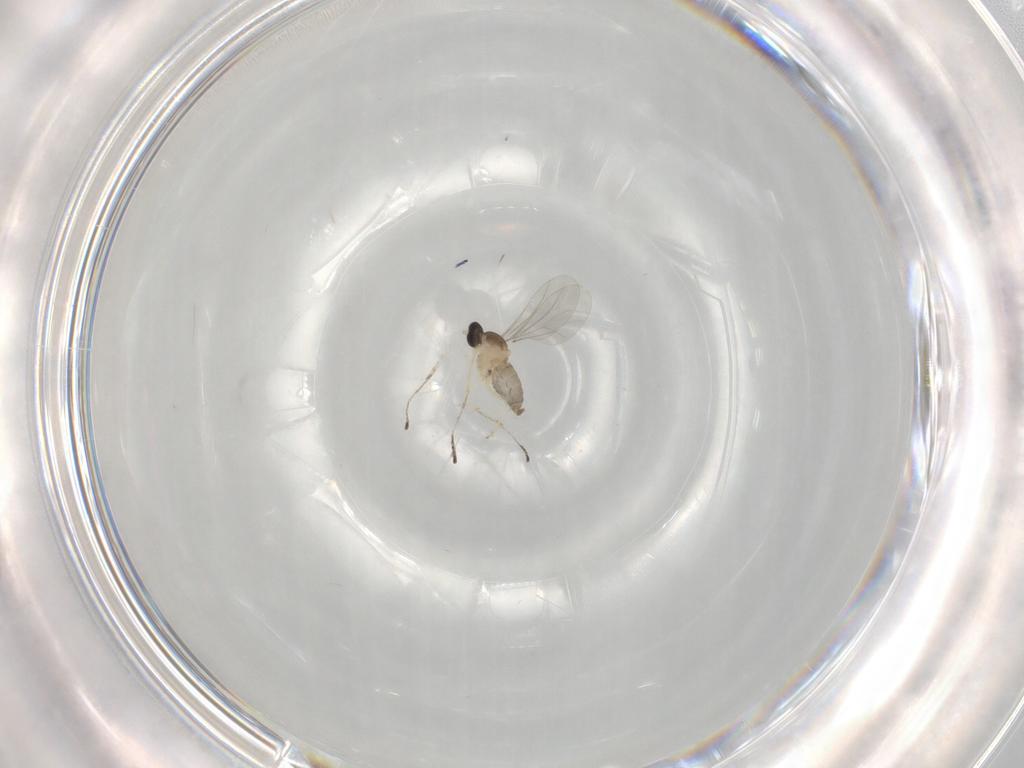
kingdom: Animalia
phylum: Arthropoda
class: Insecta
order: Diptera
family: Cecidomyiidae
